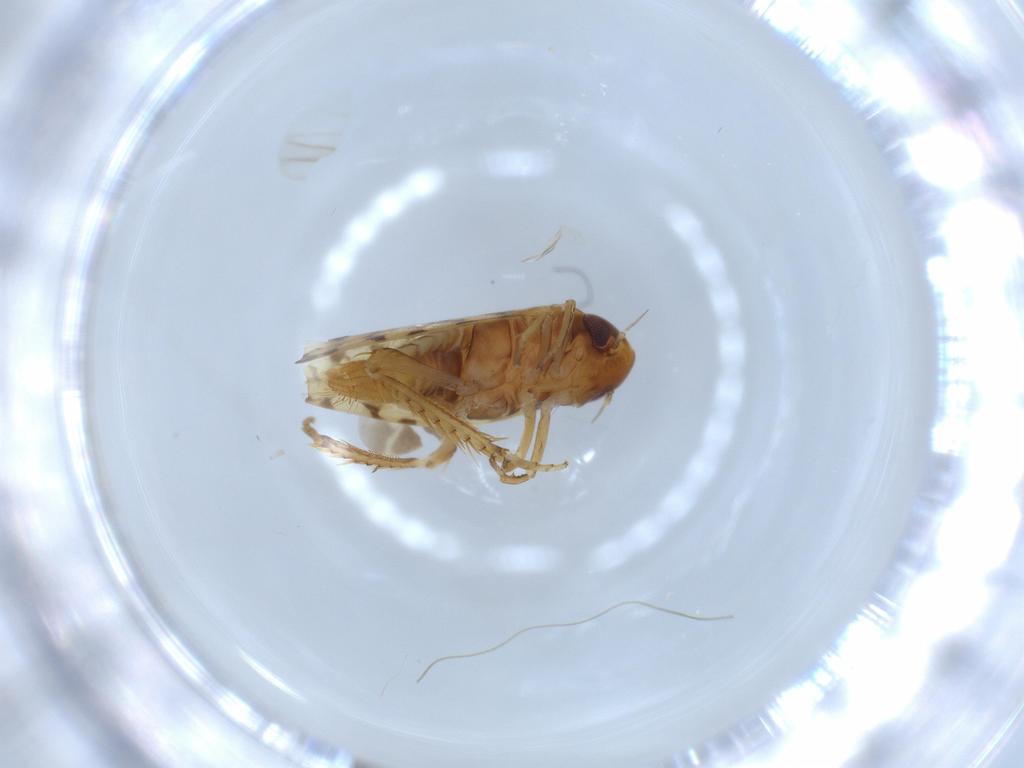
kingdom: Animalia
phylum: Arthropoda
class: Insecta
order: Hemiptera
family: Cicadellidae
